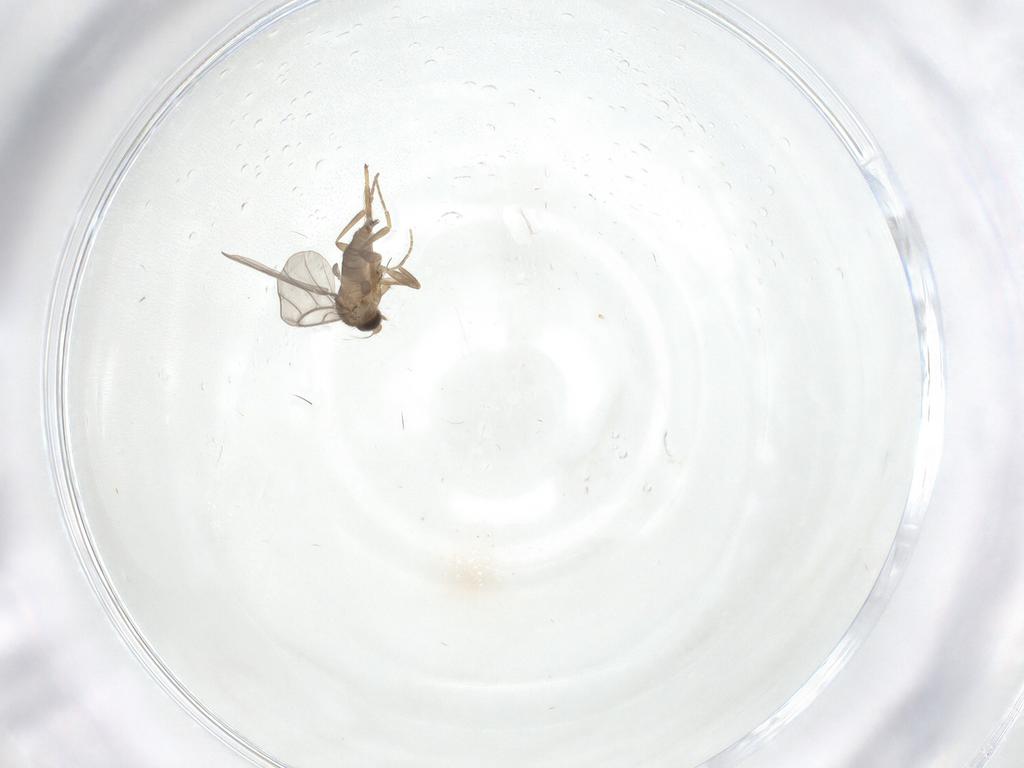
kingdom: Animalia
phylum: Arthropoda
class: Insecta
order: Diptera
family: Chironomidae
